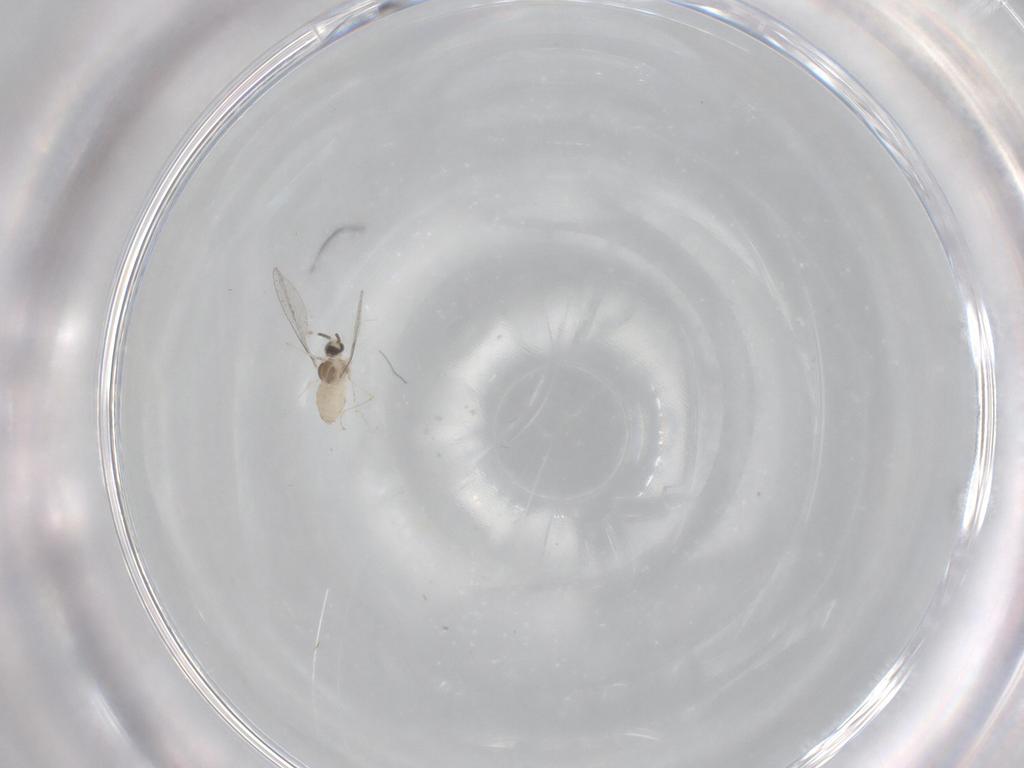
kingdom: Animalia
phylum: Arthropoda
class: Insecta
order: Diptera
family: Cecidomyiidae
